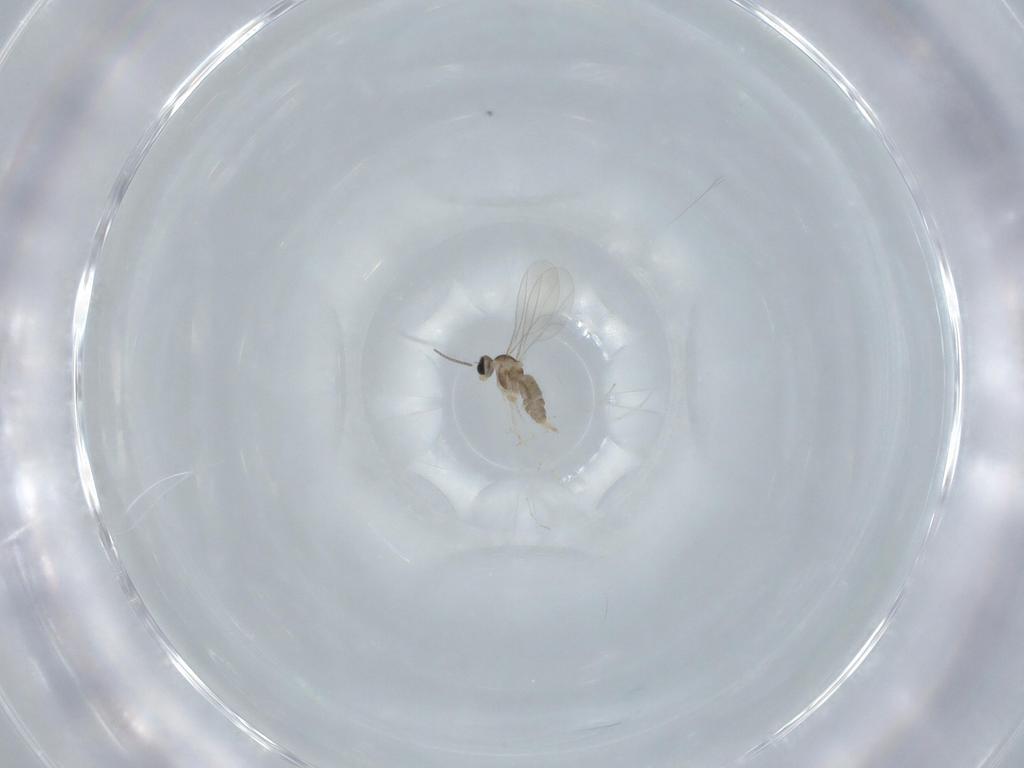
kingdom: Animalia
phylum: Arthropoda
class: Insecta
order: Diptera
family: Cecidomyiidae
